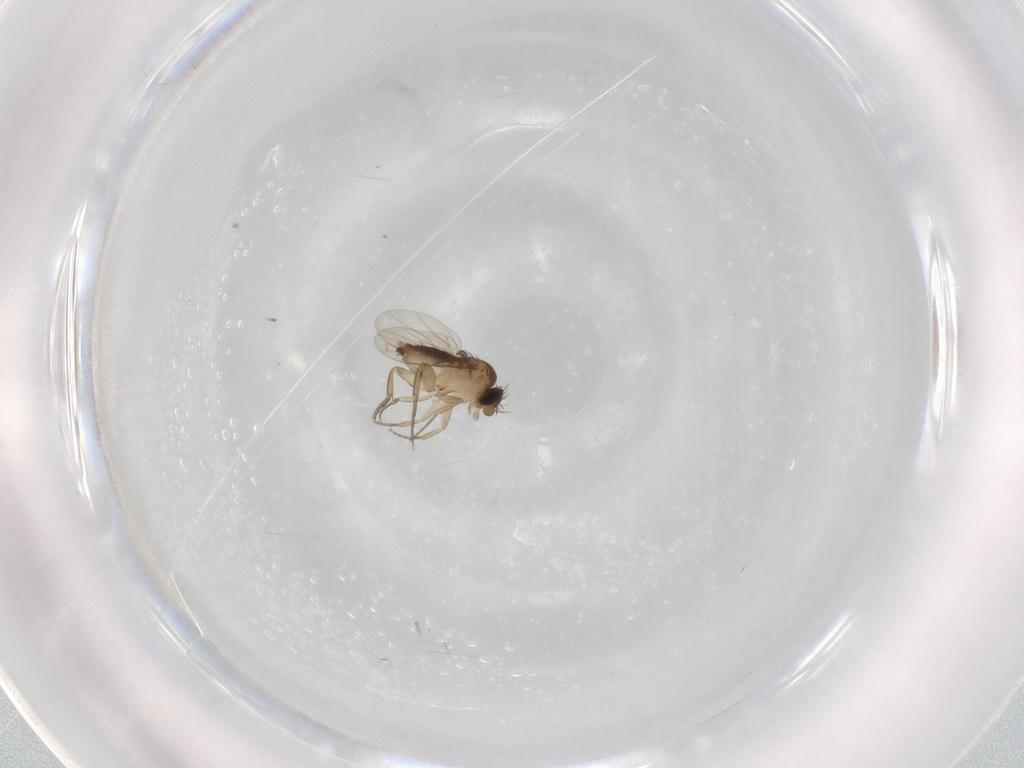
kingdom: Animalia
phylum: Arthropoda
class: Insecta
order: Diptera
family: Phoridae
